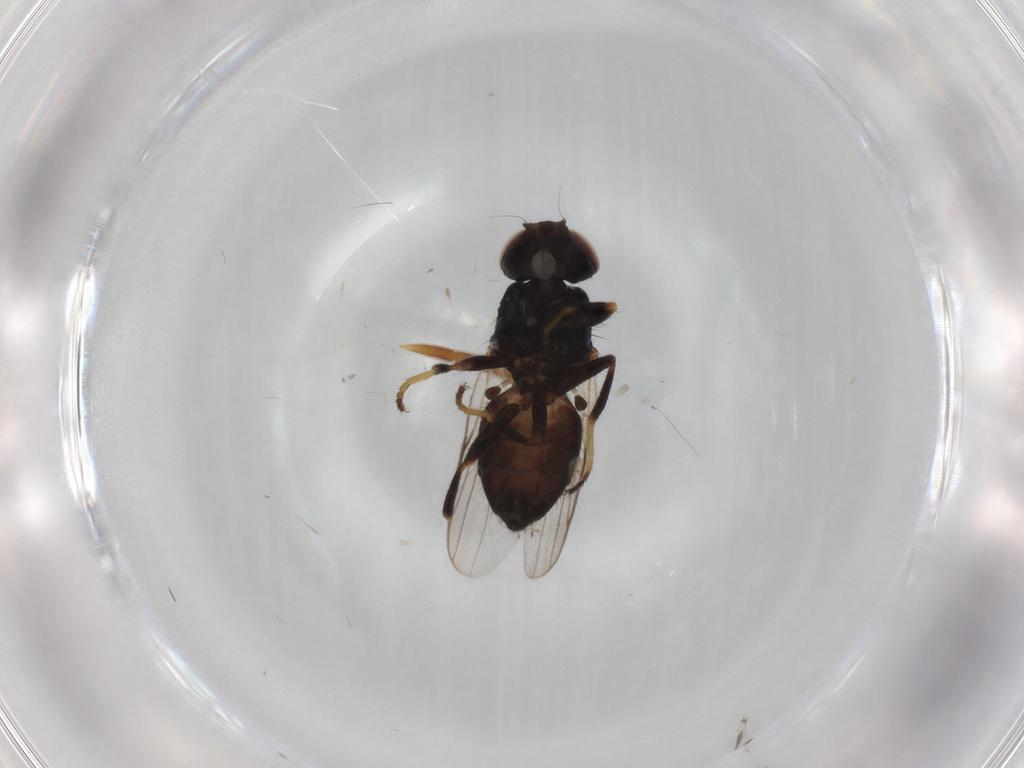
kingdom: Animalia
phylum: Arthropoda
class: Insecta
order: Diptera
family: Chloropidae
